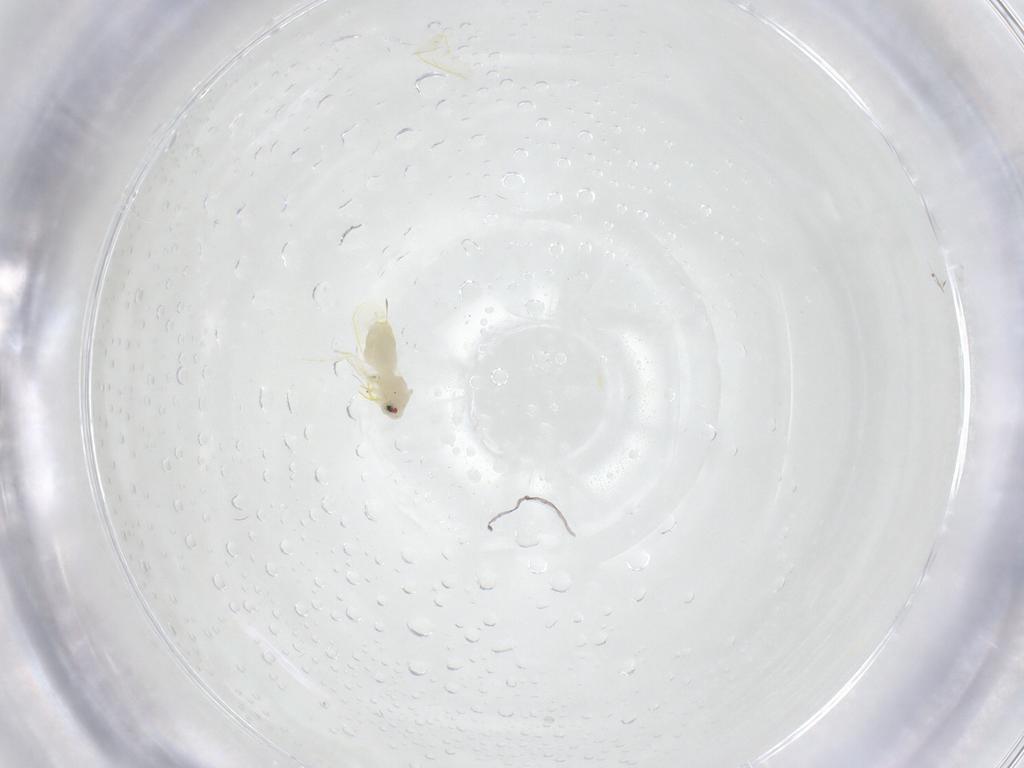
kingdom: Animalia
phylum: Arthropoda
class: Insecta
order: Hemiptera
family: Aleyrodidae
